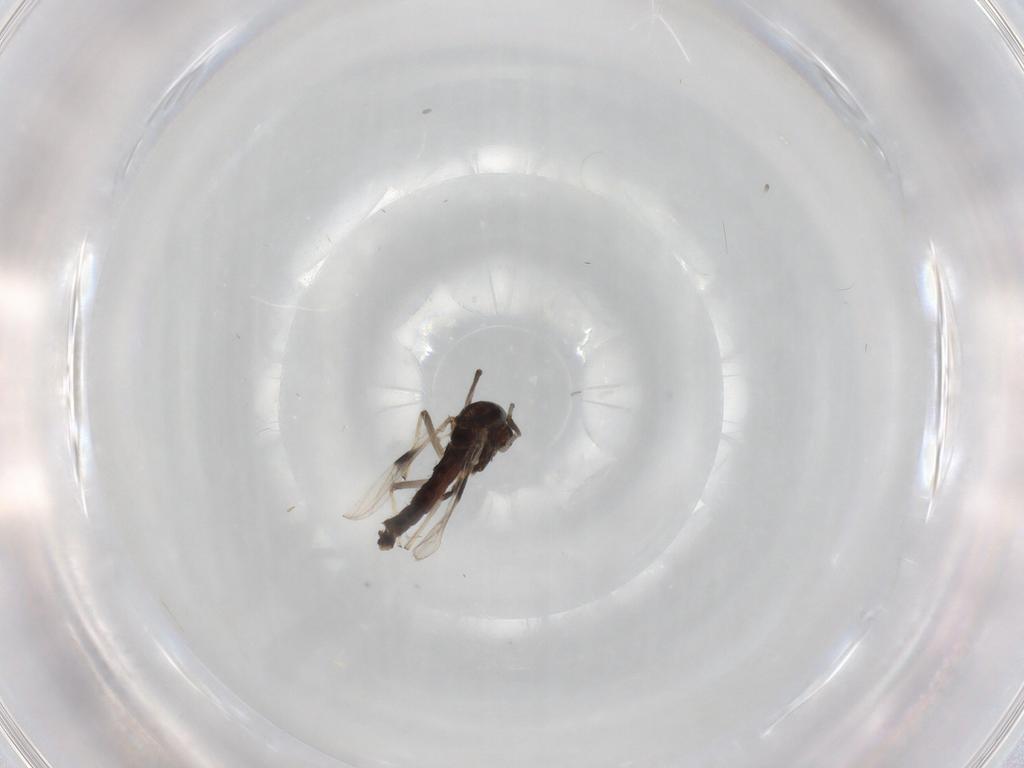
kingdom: Animalia
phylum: Arthropoda
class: Insecta
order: Diptera
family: Chironomidae
